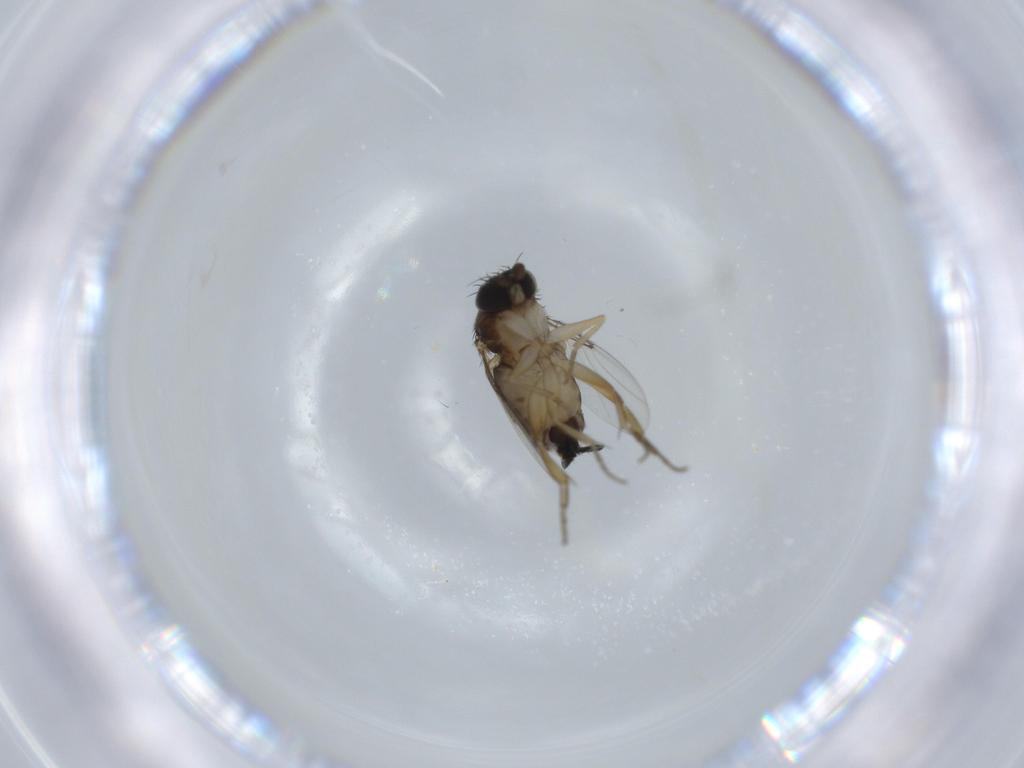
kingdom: Animalia
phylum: Arthropoda
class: Insecta
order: Diptera
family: Phoridae
